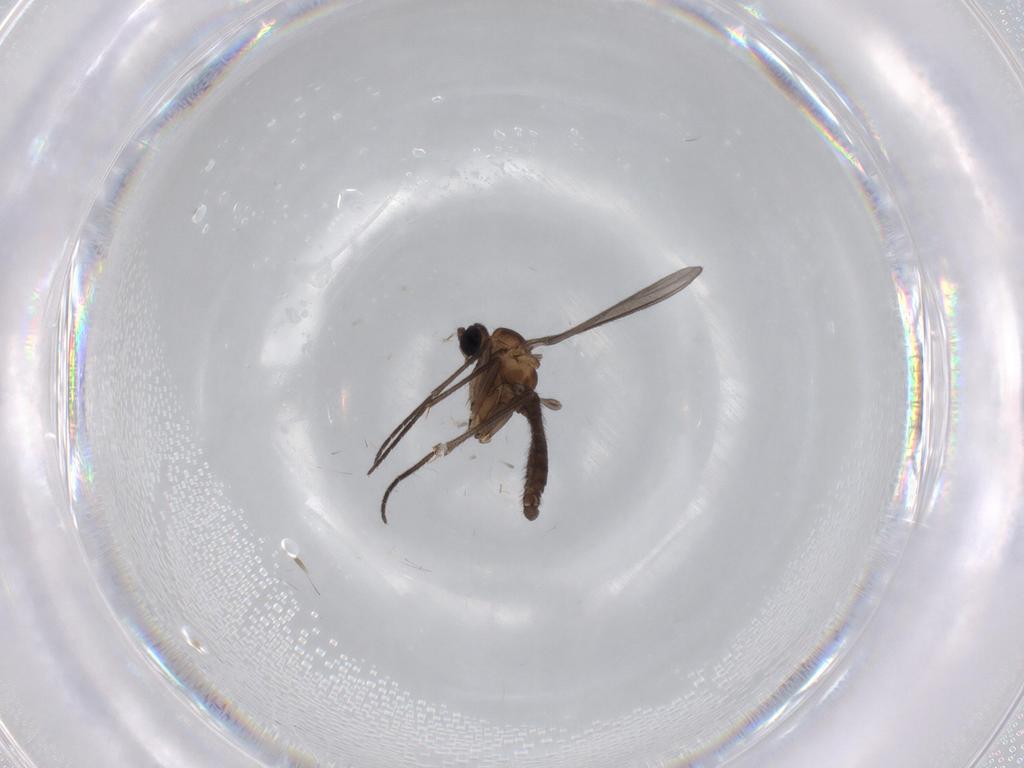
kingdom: Animalia
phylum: Arthropoda
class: Insecta
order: Diptera
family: Sciaridae
